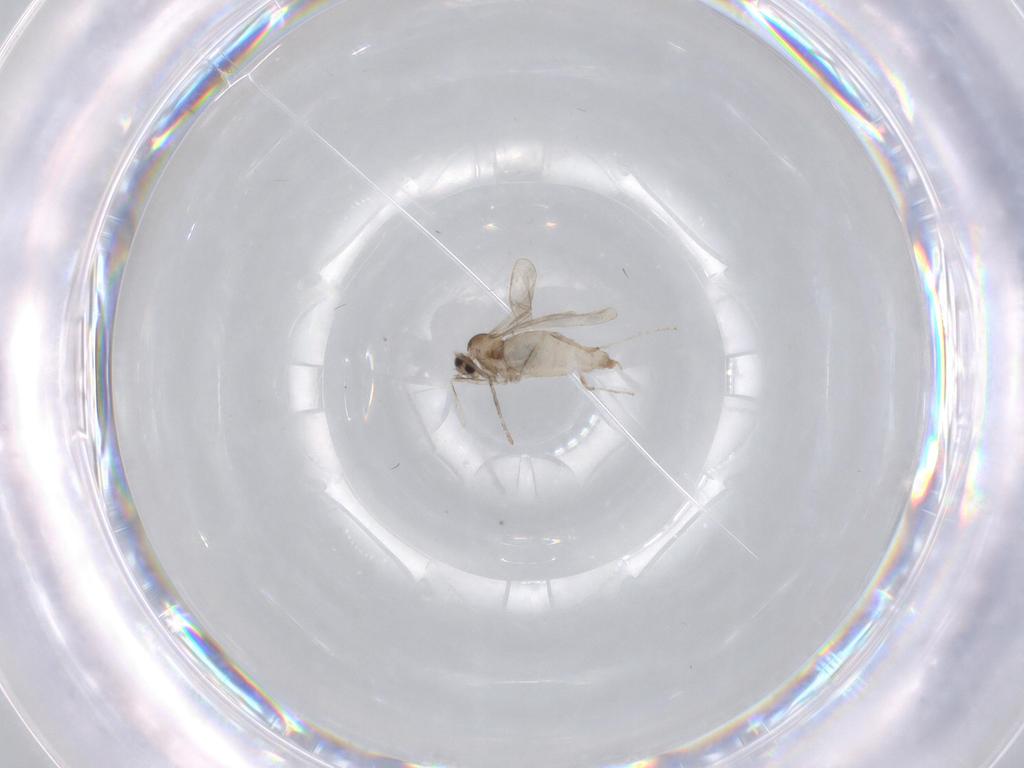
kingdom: Animalia
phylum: Arthropoda
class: Insecta
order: Diptera
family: Cecidomyiidae
